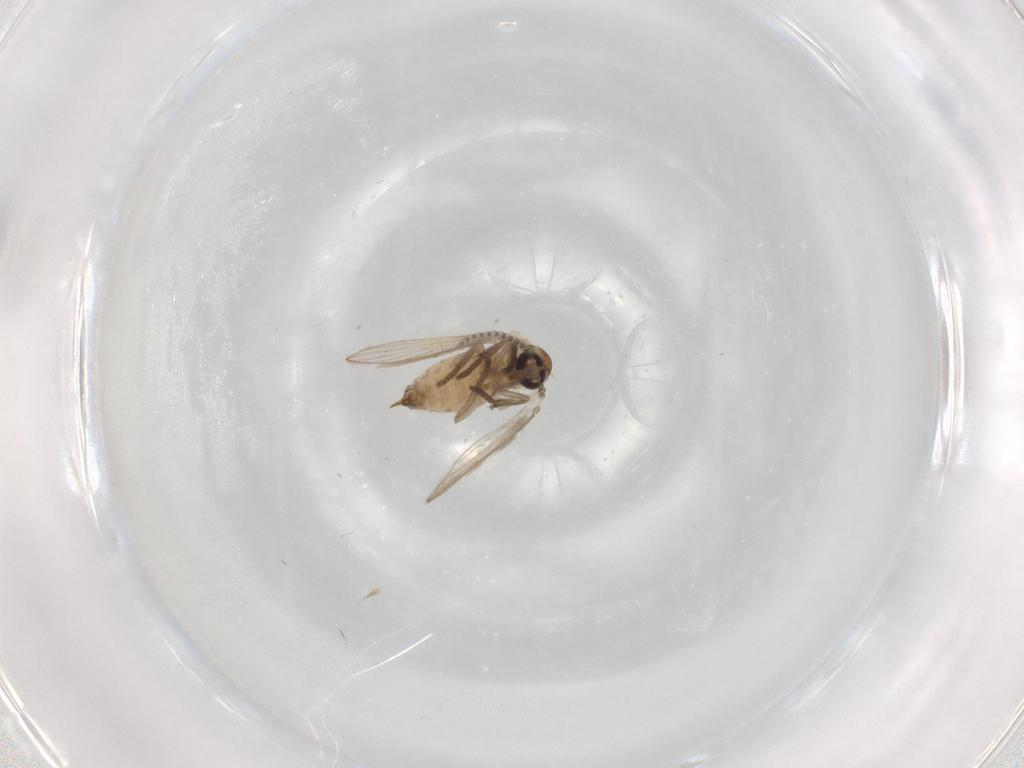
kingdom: Animalia
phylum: Arthropoda
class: Insecta
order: Diptera
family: Psychodidae
